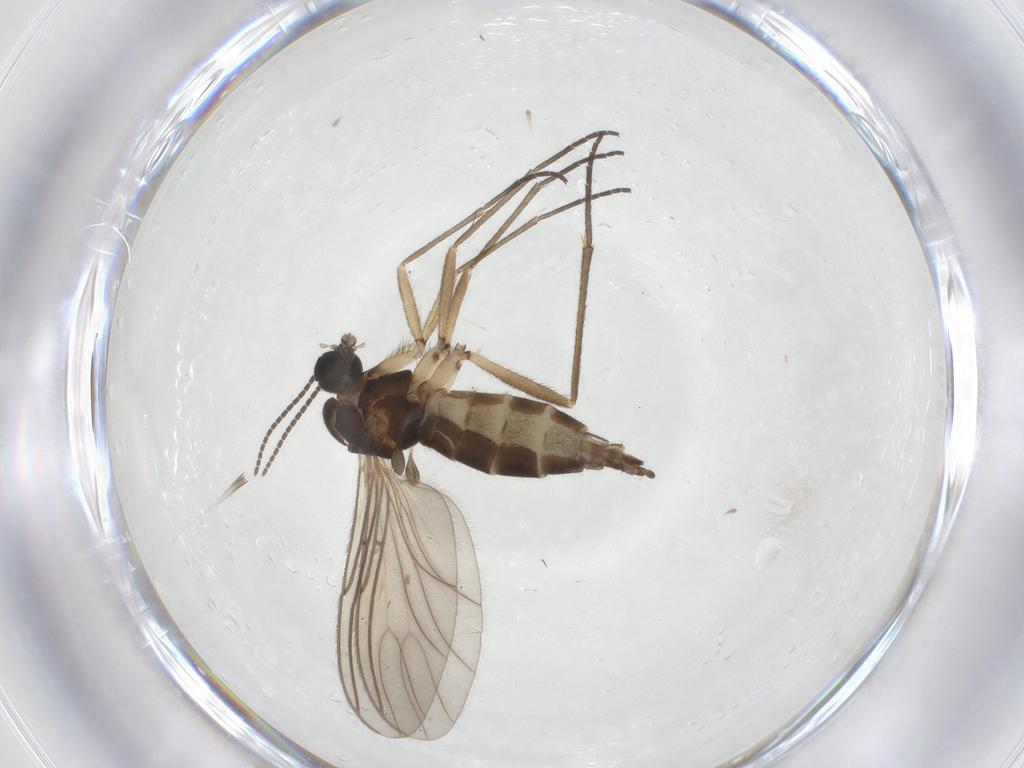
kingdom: Animalia
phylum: Arthropoda
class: Insecta
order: Diptera
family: Sciaridae
